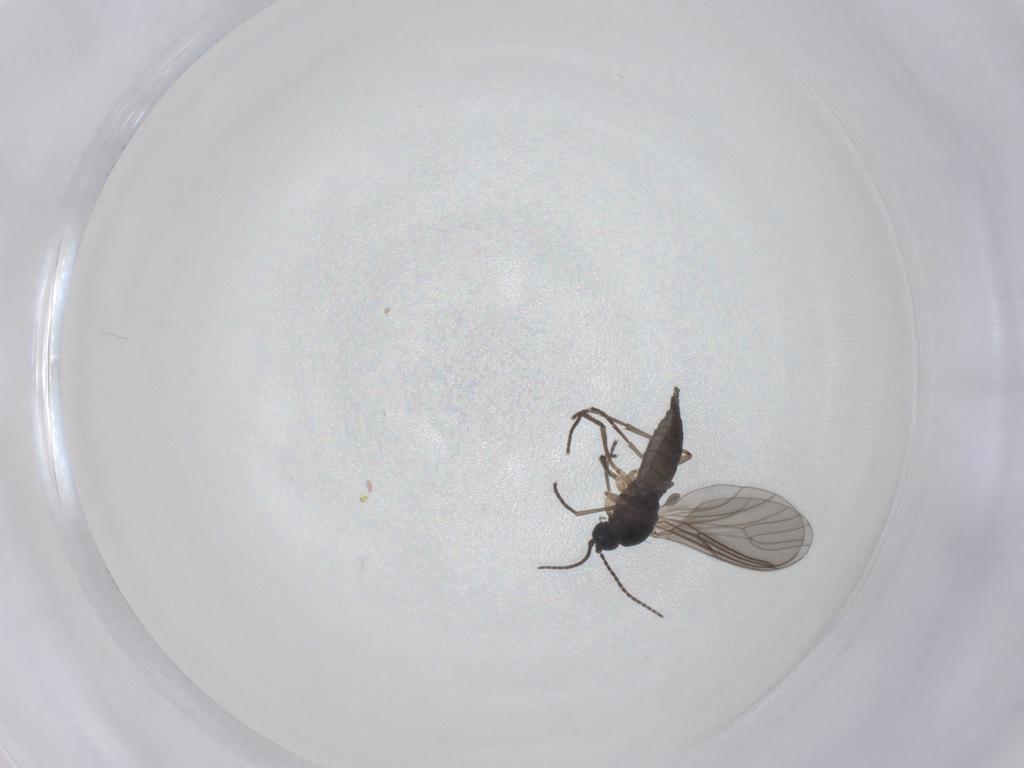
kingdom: Animalia
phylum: Arthropoda
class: Insecta
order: Diptera
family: Sciaridae
